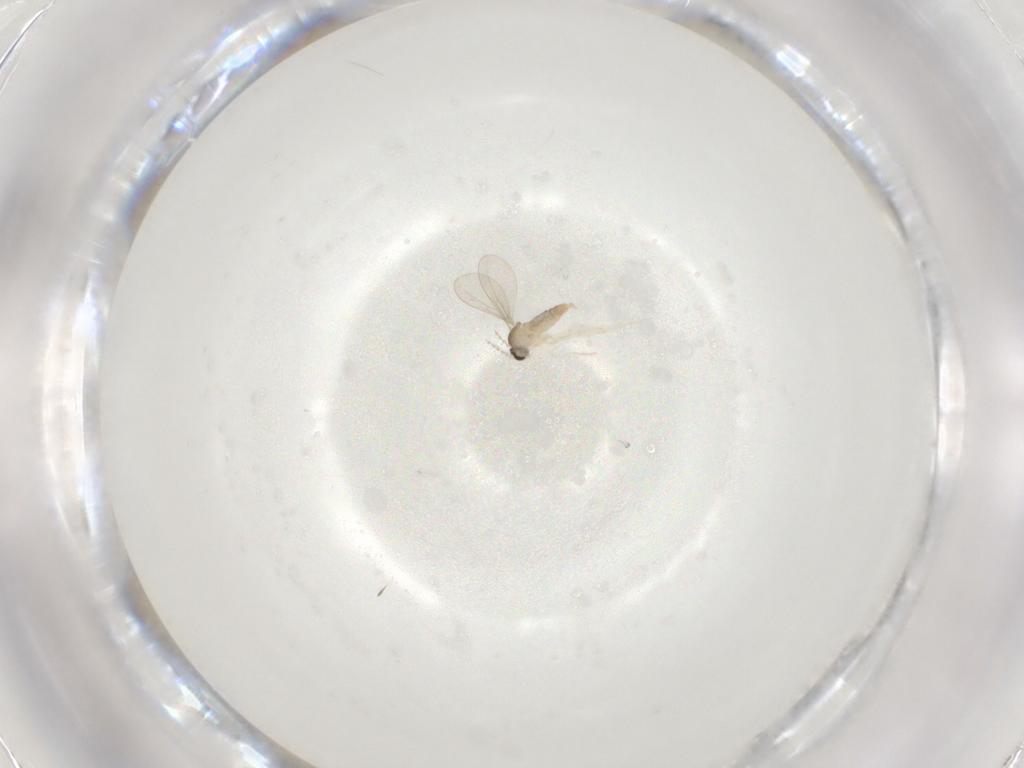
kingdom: Animalia
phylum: Arthropoda
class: Insecta
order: Diptera
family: Cecidomyiidae
